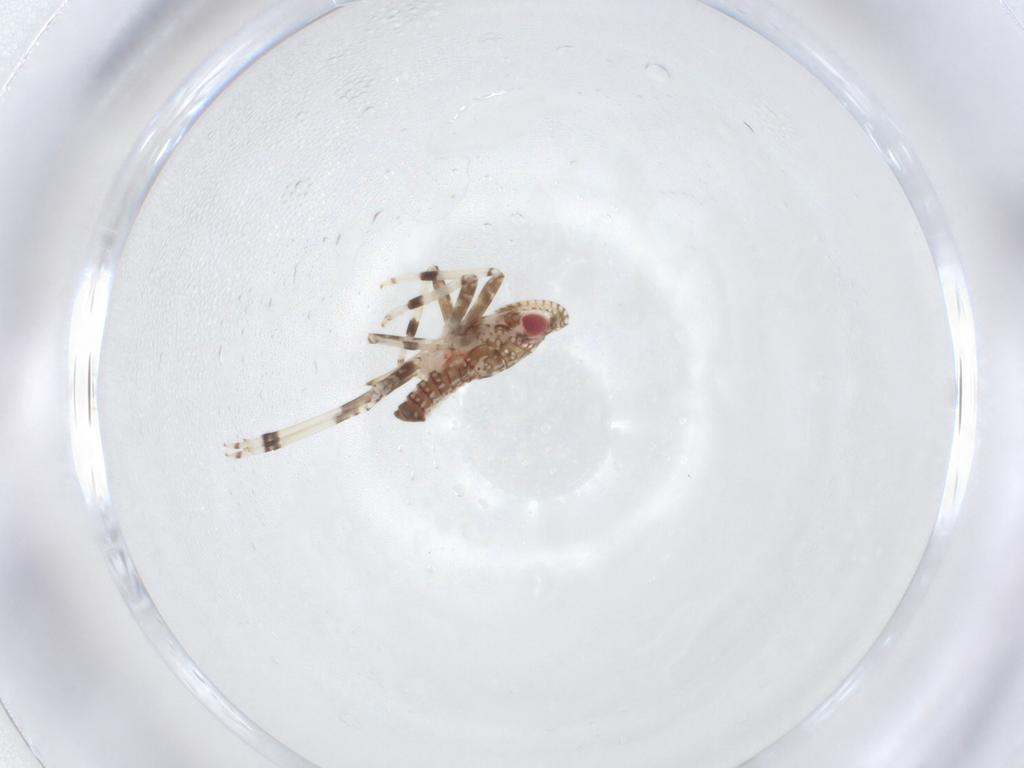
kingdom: Animalia
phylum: Arthropoda
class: Insecta
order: Hemiptera
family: Dictyopharidae
